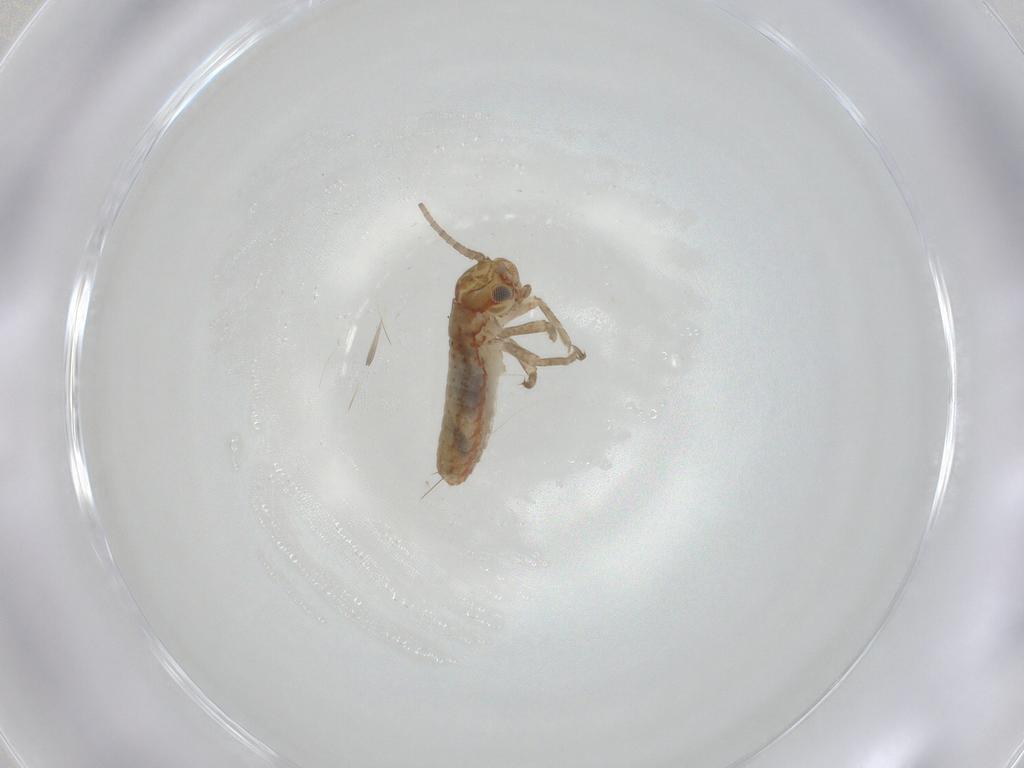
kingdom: Animalia
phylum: Arthropoda
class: Insecta
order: Orthoptera
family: Mogoplistidae
